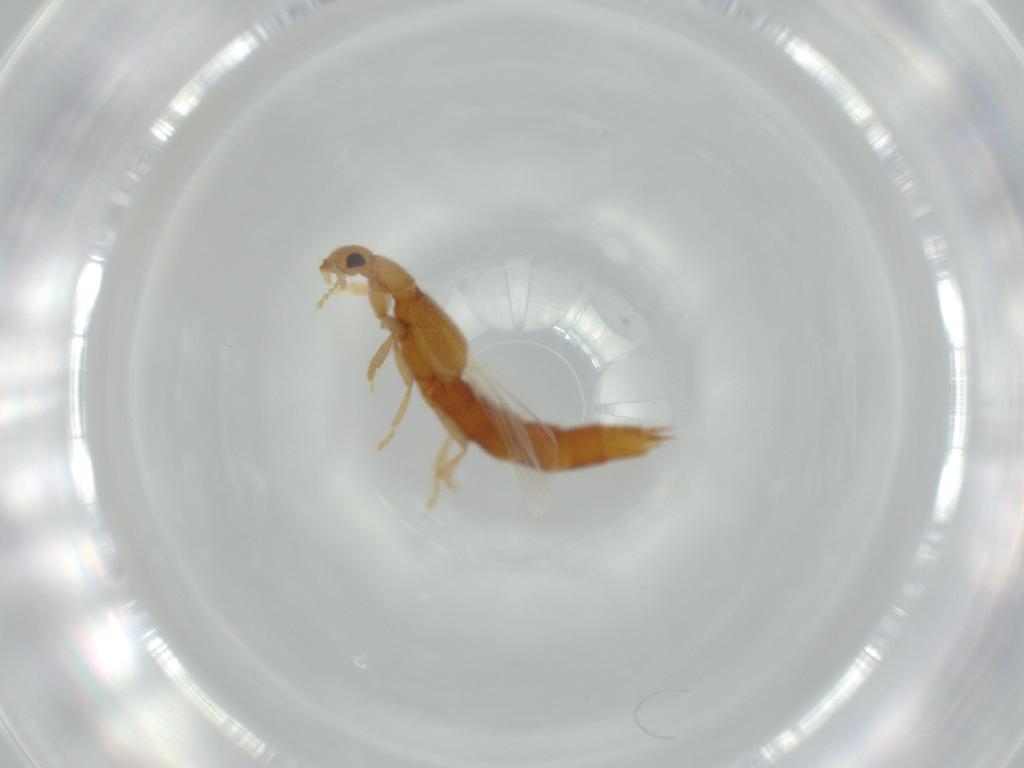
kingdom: Animalia
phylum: Arthropoda
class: Insecta
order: Coleoptera
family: Staphylinidae
